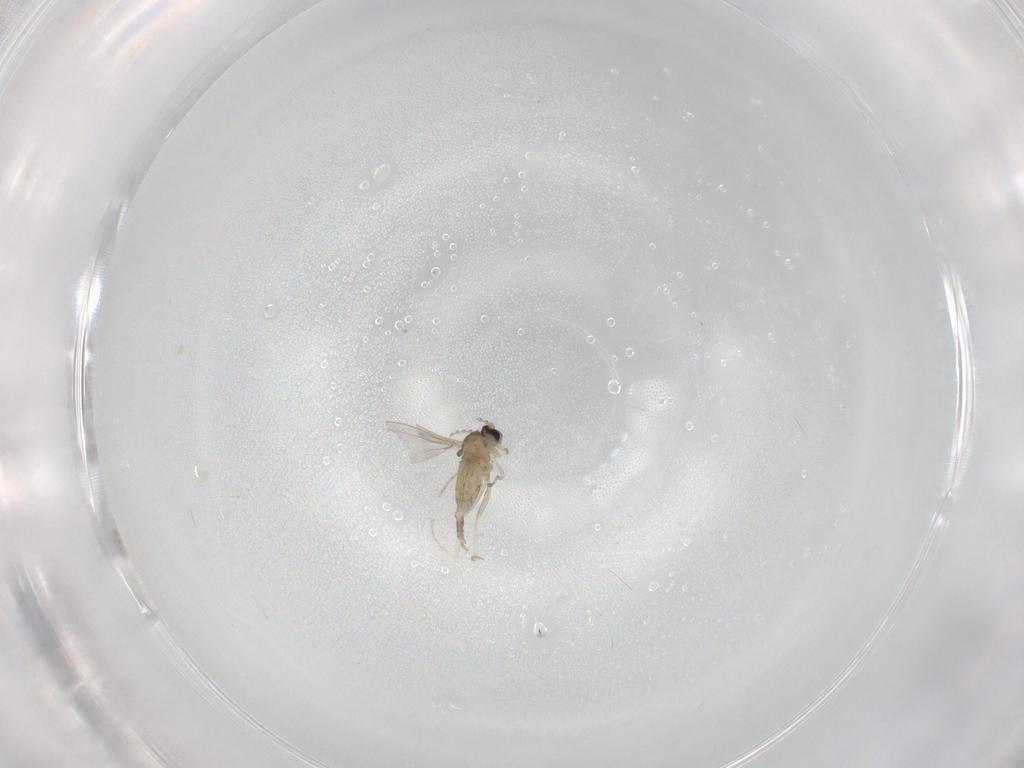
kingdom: Animalia
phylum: Arthropoda
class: Insecta
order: Diptera
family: Cecidomyiidae
